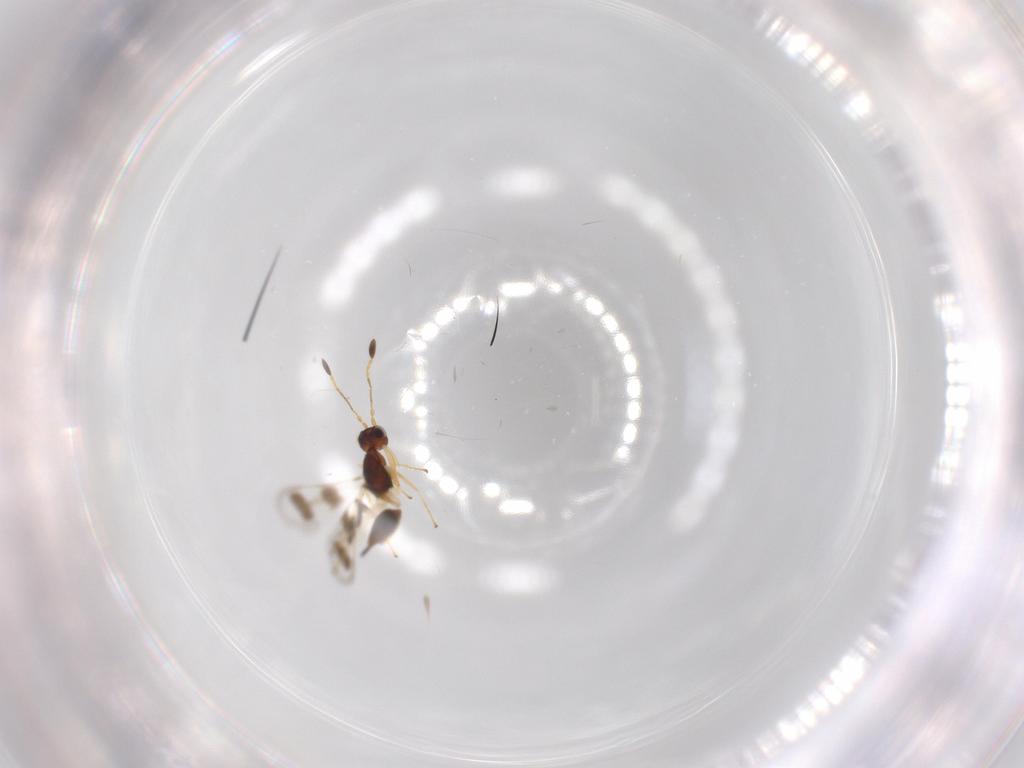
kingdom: Animalia
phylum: Arthropoda
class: Insecta
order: Hymenoptera
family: Mymaridae
